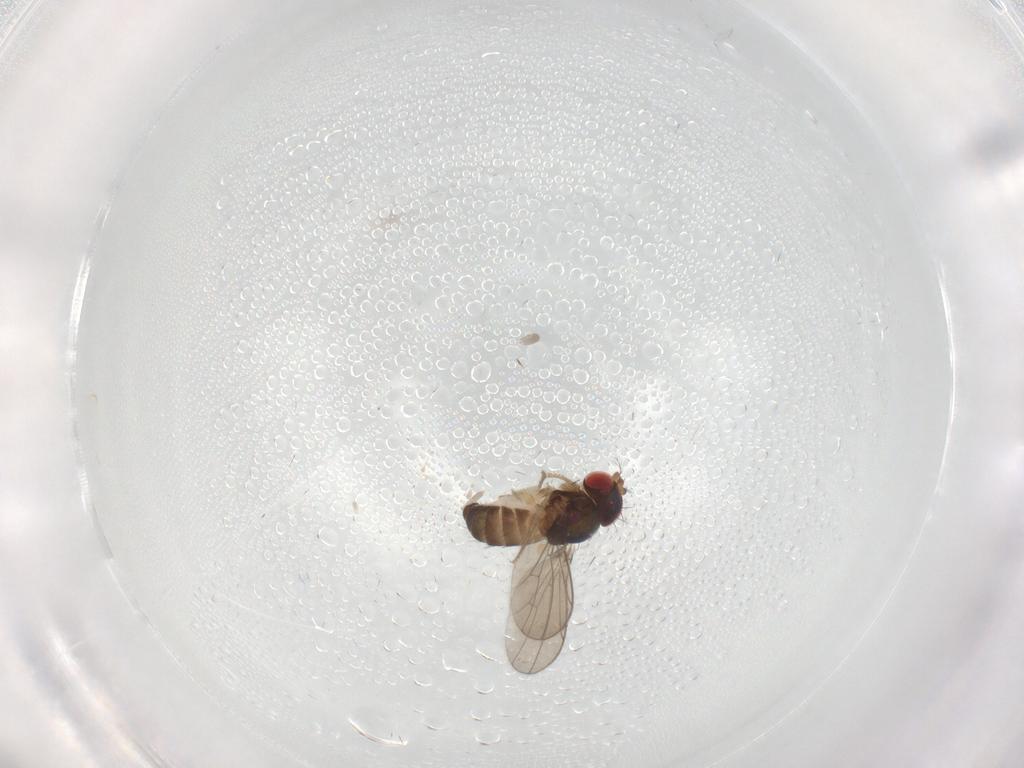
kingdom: Animalia
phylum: Arthropoda
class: Insecta
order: Diptera
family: Drosophilidae
